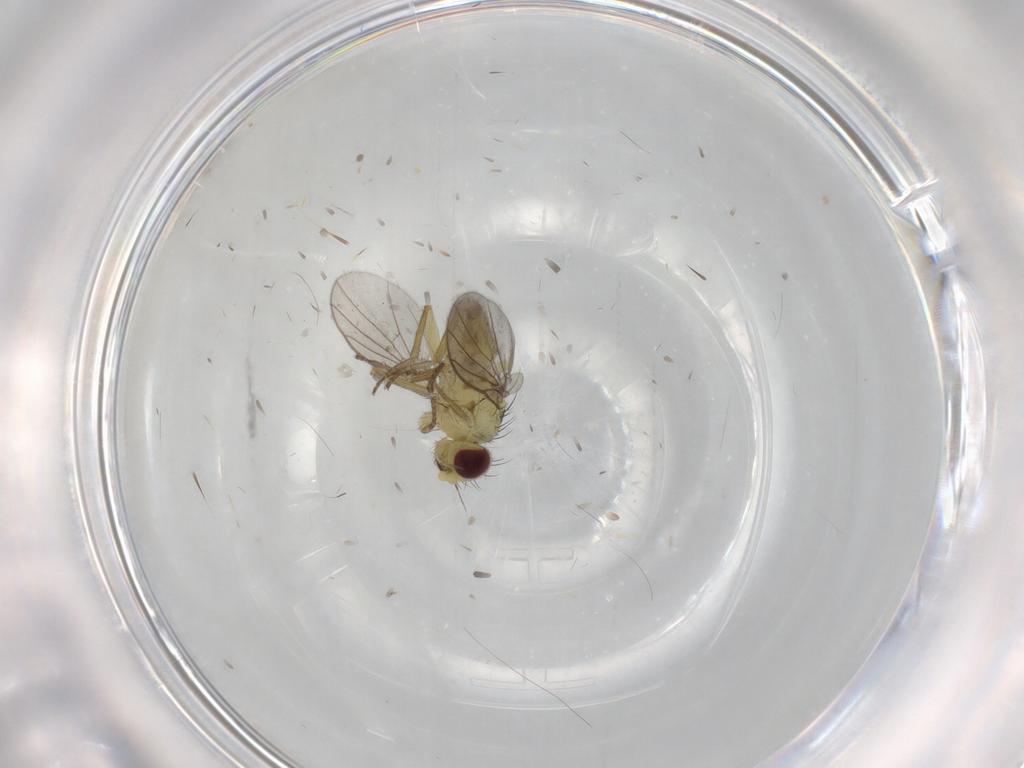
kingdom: Animalia
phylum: Arthropoda
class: Insecta
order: Diptera
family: Agromyzidae
